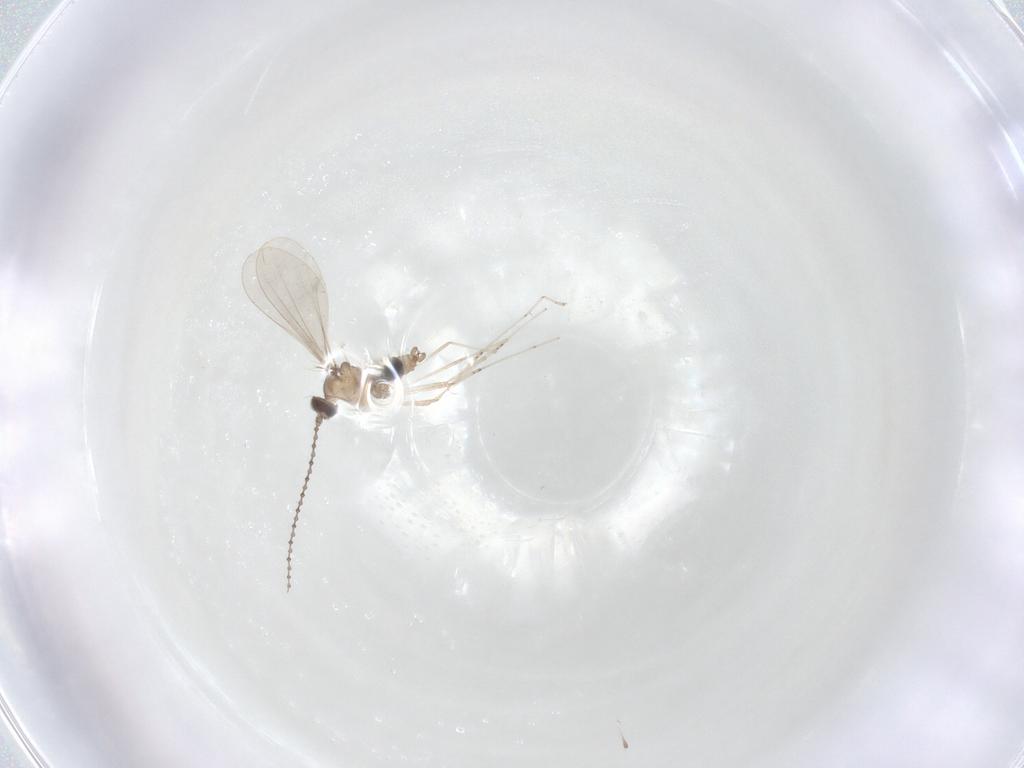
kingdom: Animalia
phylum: Arthropoda
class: Insecta
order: Diptera
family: Cecidomyiidae
